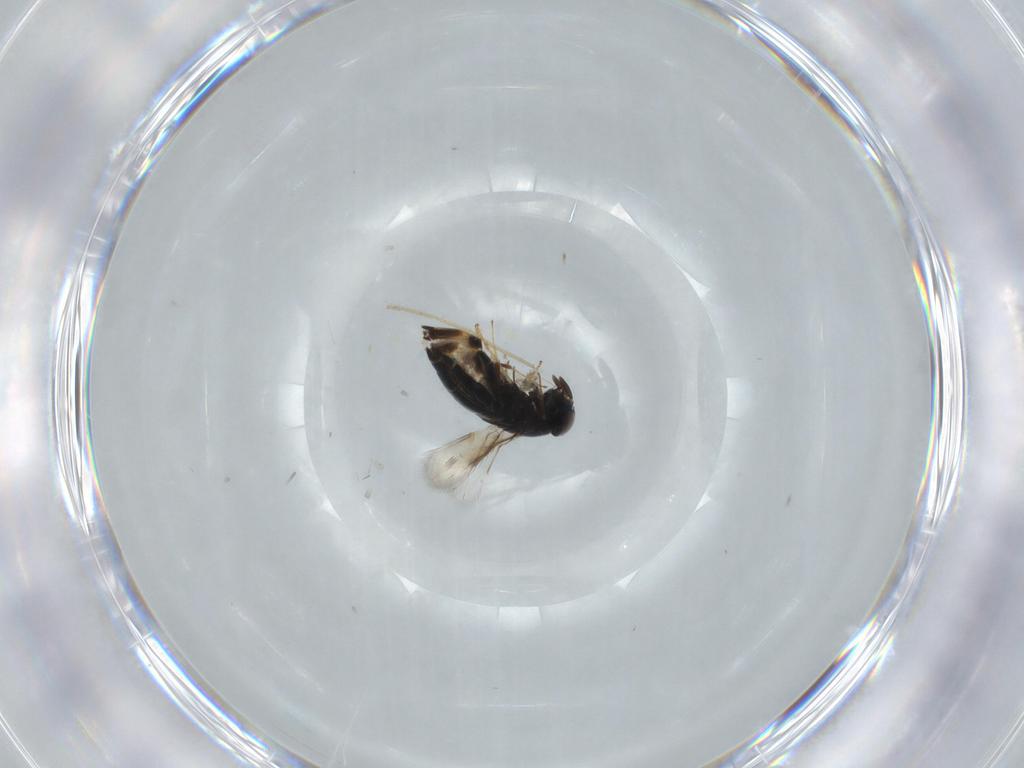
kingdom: Animalia
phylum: Arthropoda
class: Insecta
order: Hymenoptera
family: Signiphoridae
